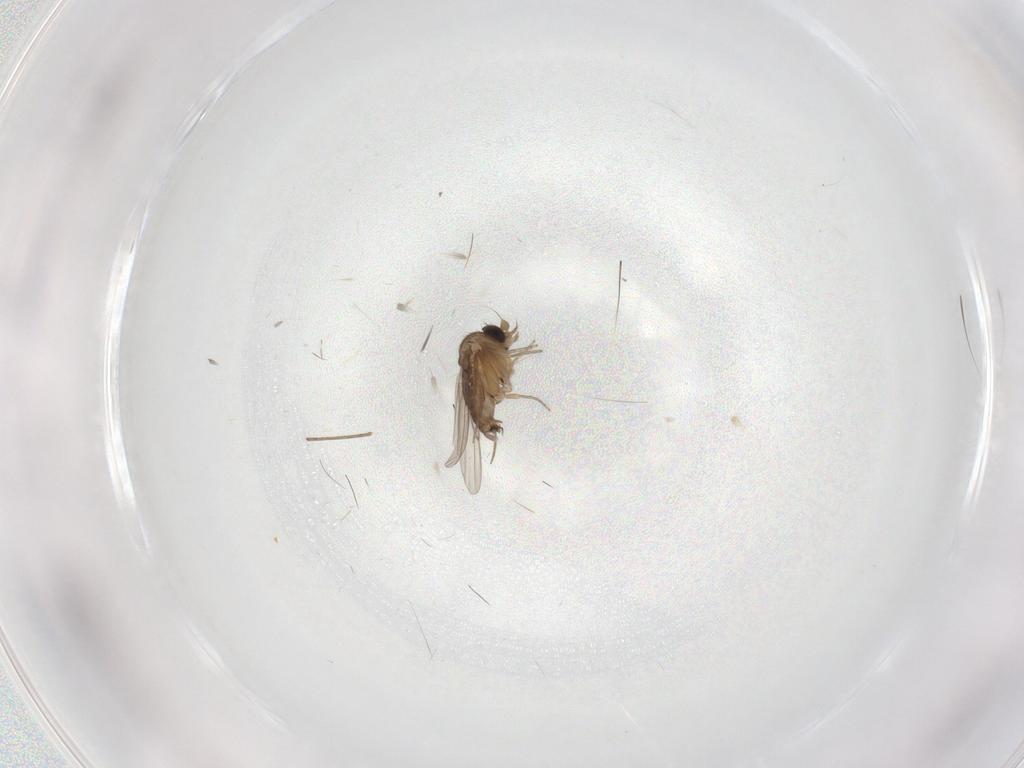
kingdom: Animalia
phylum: Arthropoda
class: Insecta
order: Diptera
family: Phoridae
